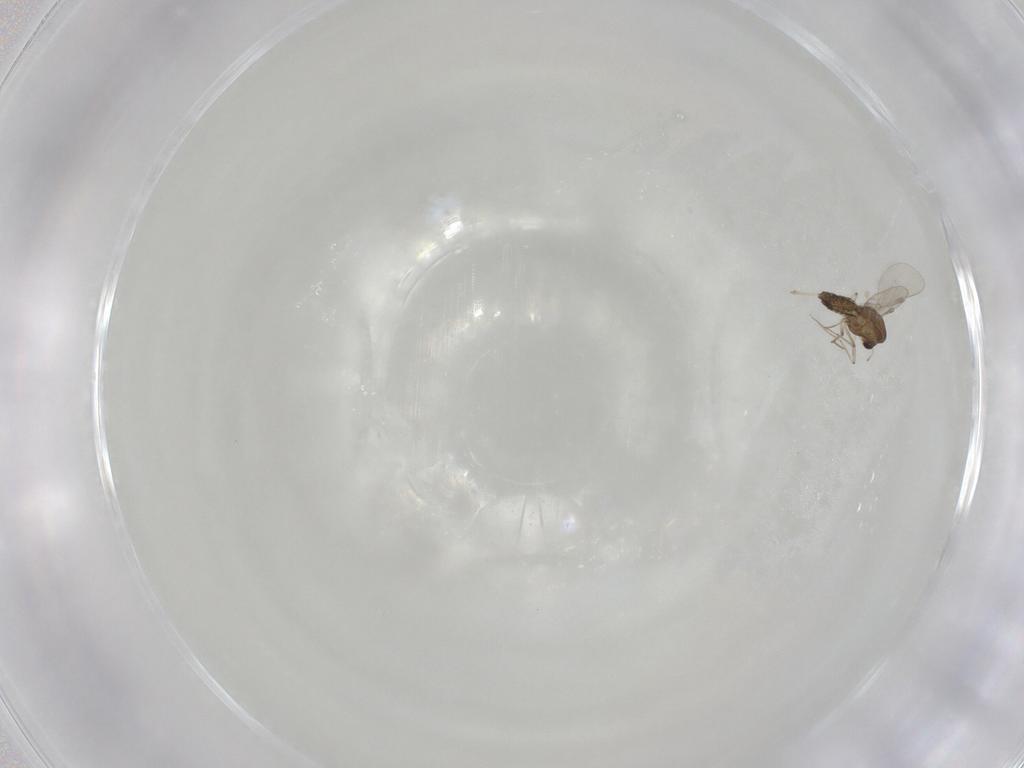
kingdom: Animalia
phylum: Arthropoda
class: Insecta
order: Diptera
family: Chironomidae
